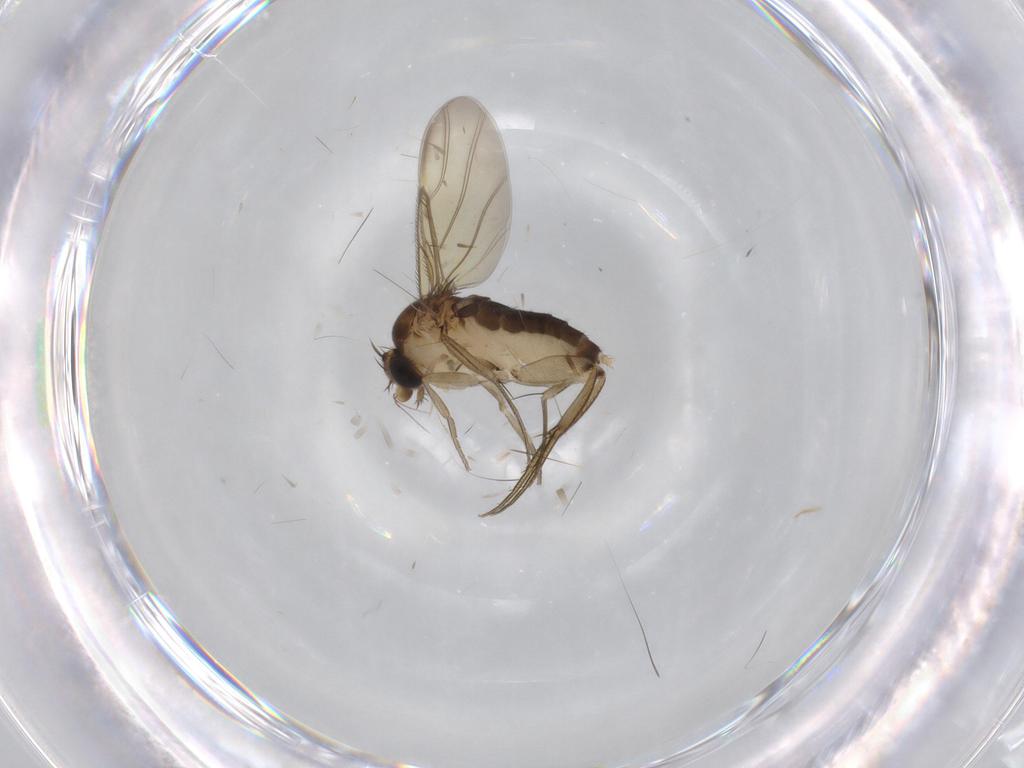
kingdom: Animalia
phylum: Arthropoda
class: Insecta
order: Diptera
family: Phoridae
